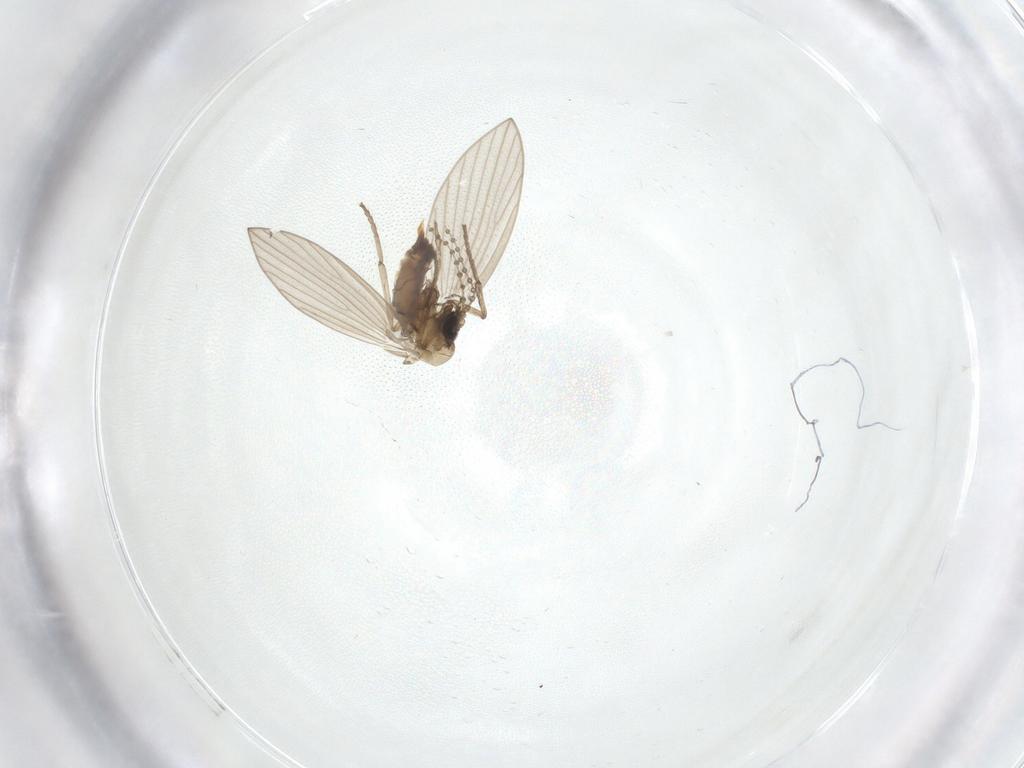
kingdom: Animalia
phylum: Arthropoda
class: Insecta
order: Diptera
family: Psychodidae
